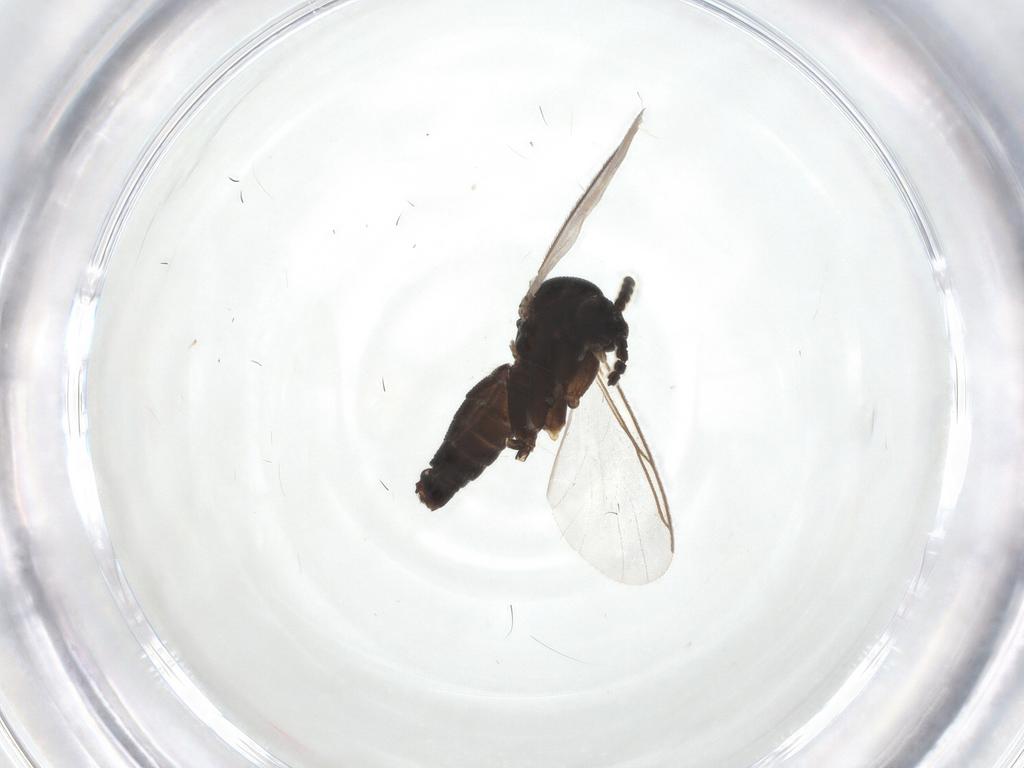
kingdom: Animalia
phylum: Arthropoda
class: Insecta
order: Diptera
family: Mycetophilidae
